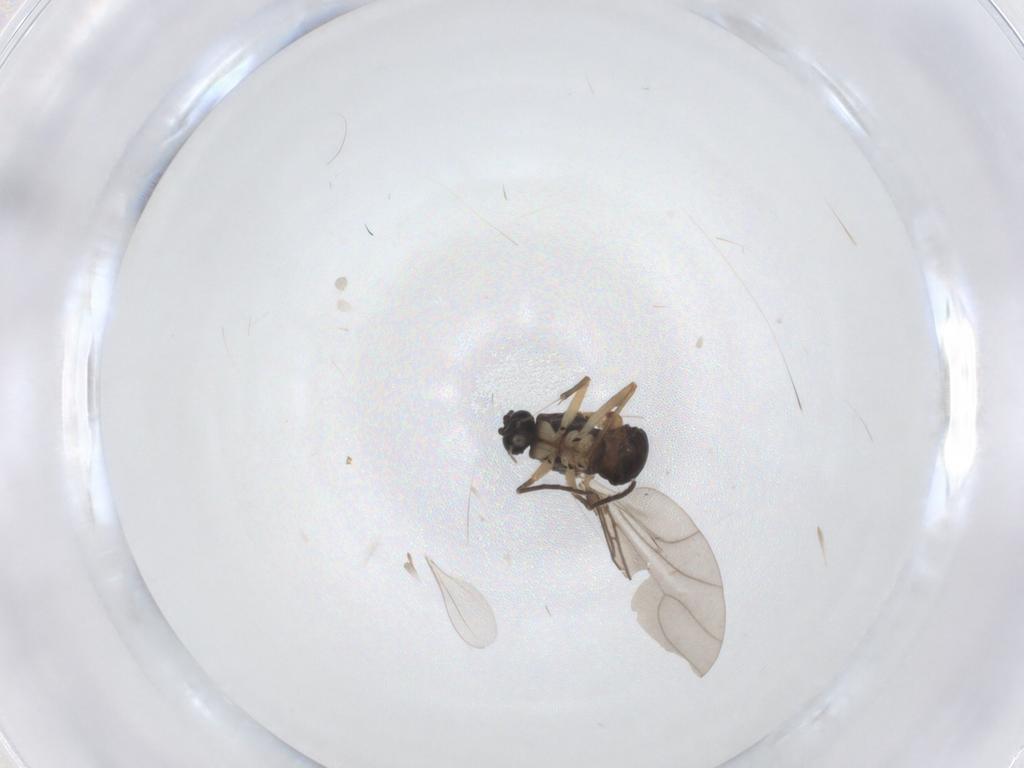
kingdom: Animalia
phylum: Arthropoda
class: Insecta
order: Diptera
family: Sciaridae
